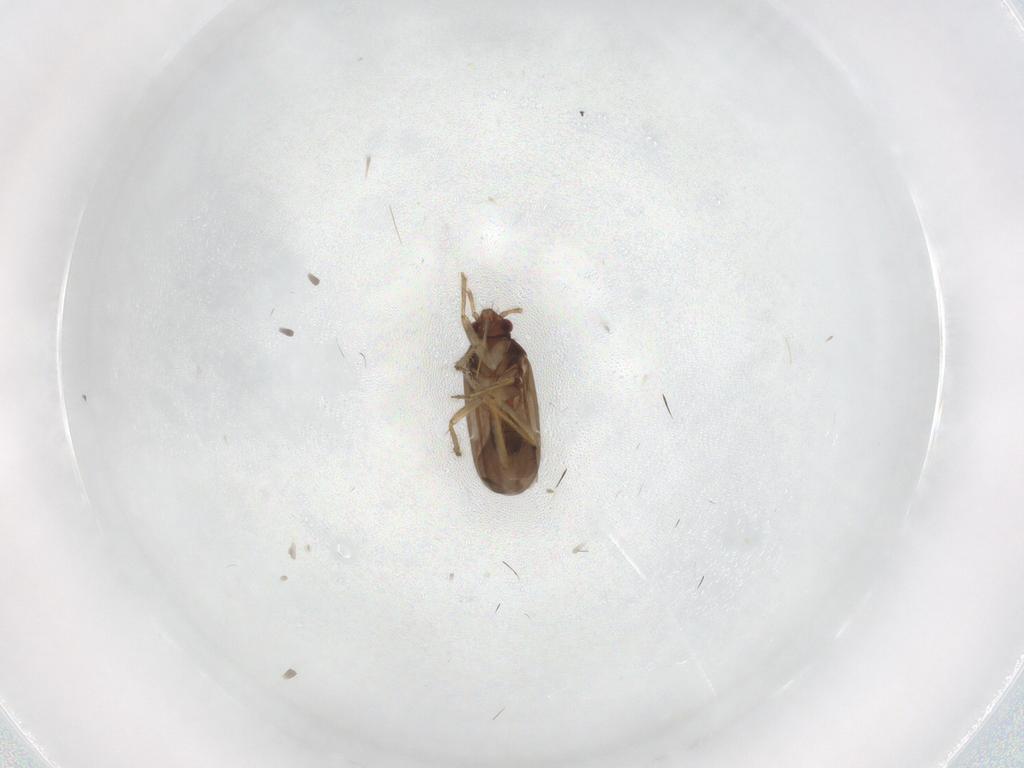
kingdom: Animalia
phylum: Arthropoda
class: Insecta
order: Hemiptera
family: Ceratocombidae
